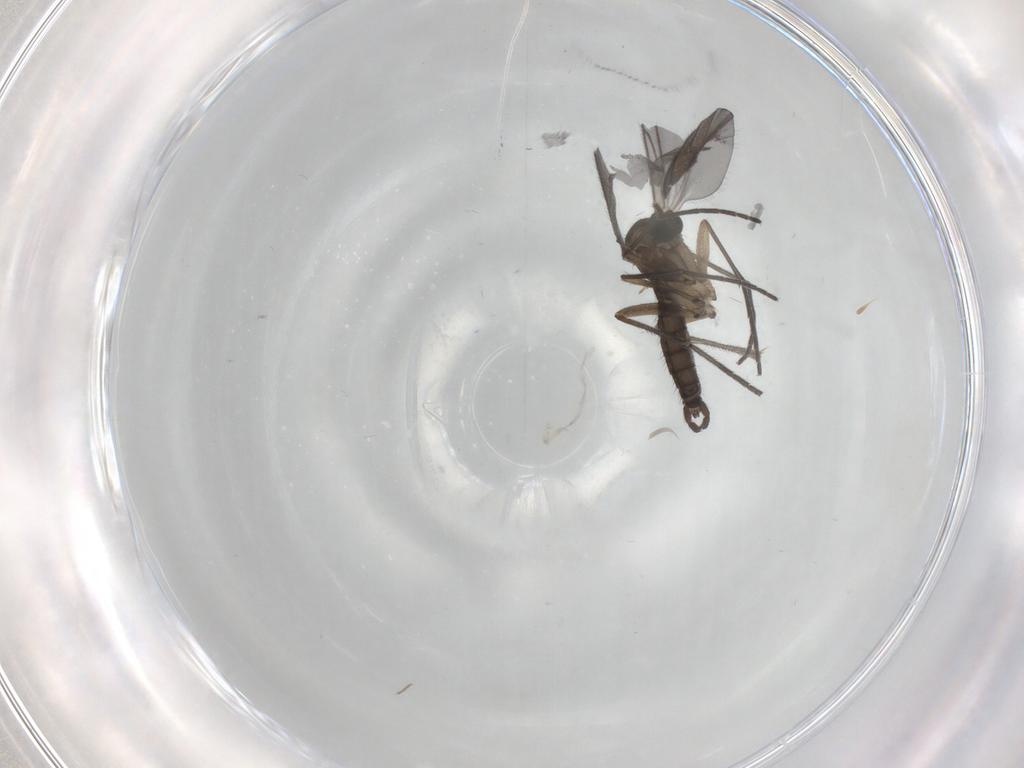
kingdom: Animalia
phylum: Arthropoda
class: Insecta
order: Diptera
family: Sciaridae
